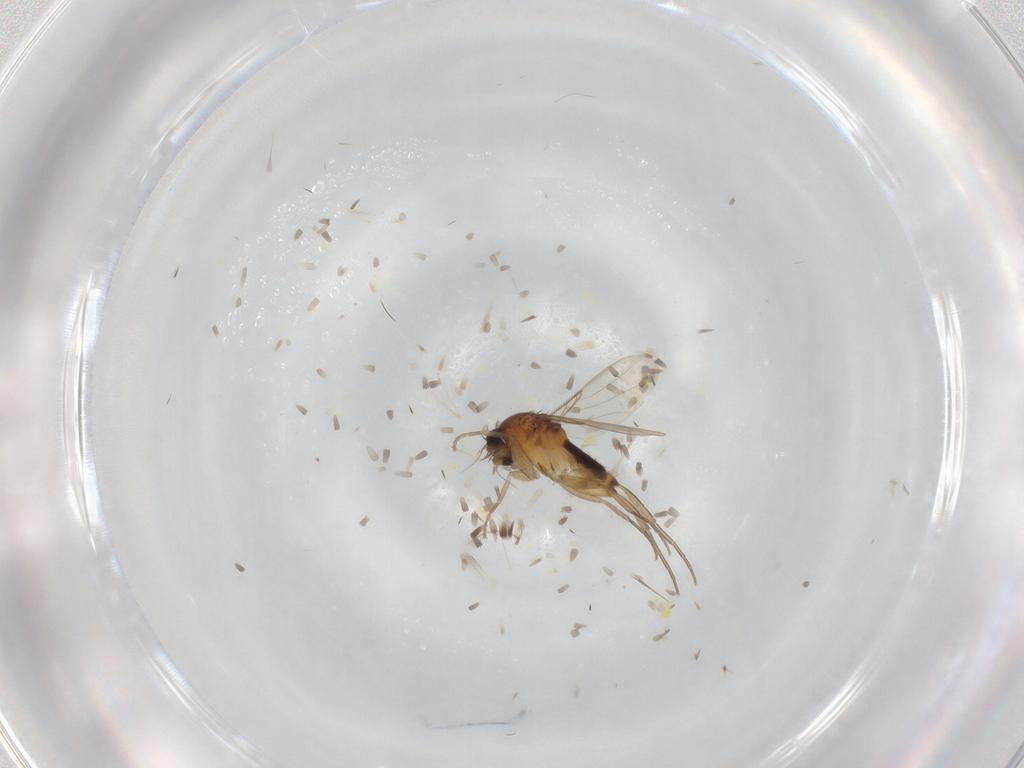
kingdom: Animalia
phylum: Arthropoda
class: Insecta
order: Diptera
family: Phoridae
